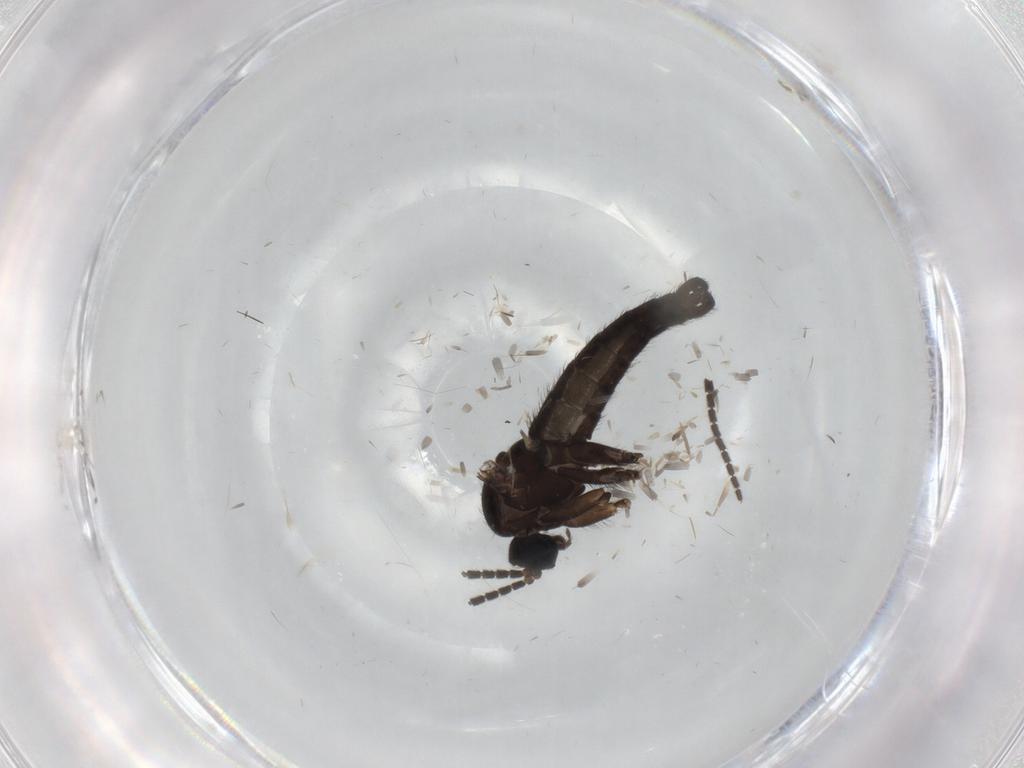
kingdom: Animalia
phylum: Arthropoda
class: Insecta
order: Diptera
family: Sciaridae
